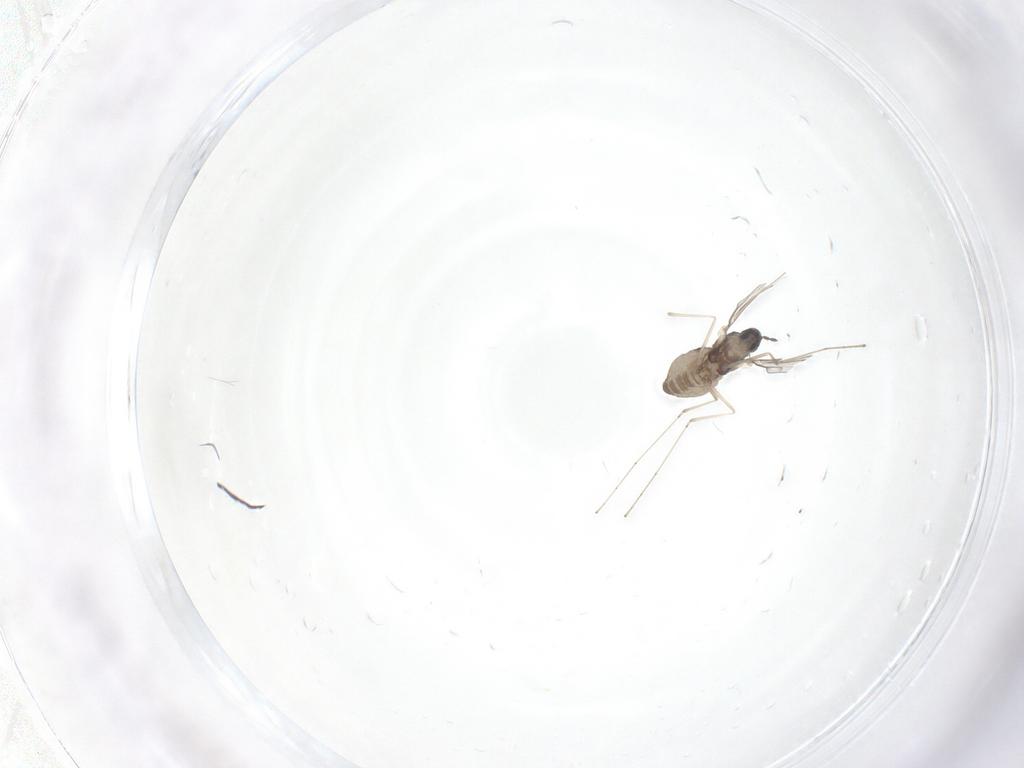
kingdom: Animalia
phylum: Arthropoda
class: Insecta
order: Diptera
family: Cecidomyiidae
